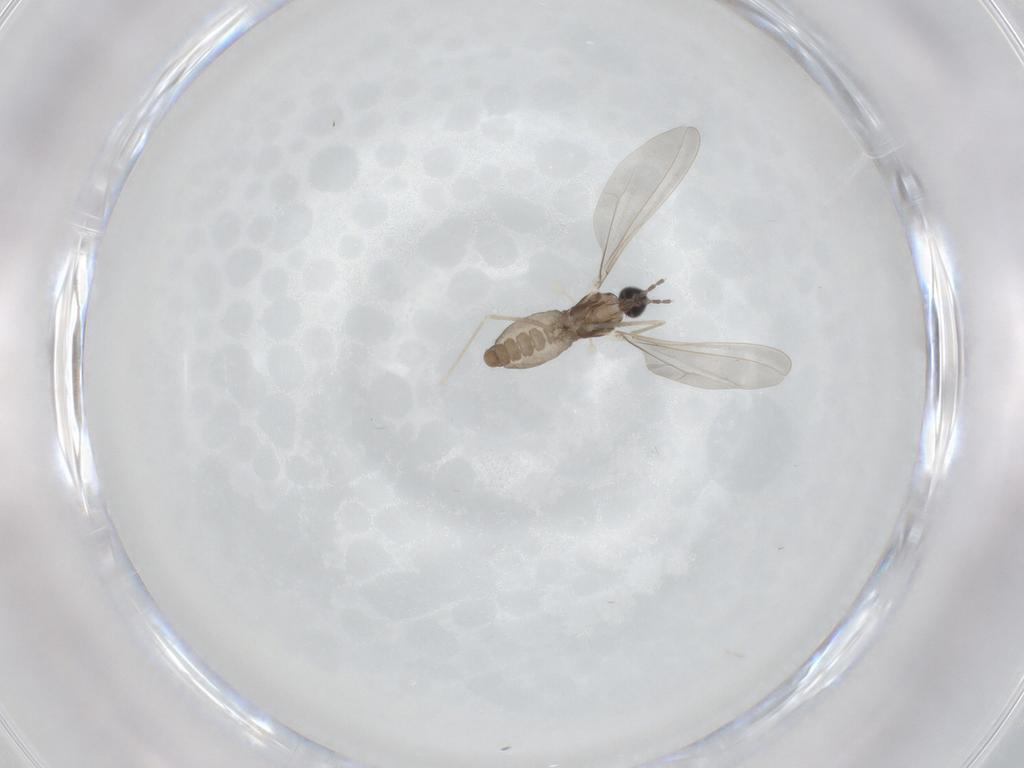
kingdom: Animalia
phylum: Arthropoda
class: Insecta
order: Diptera
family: Cecidomyiidae
